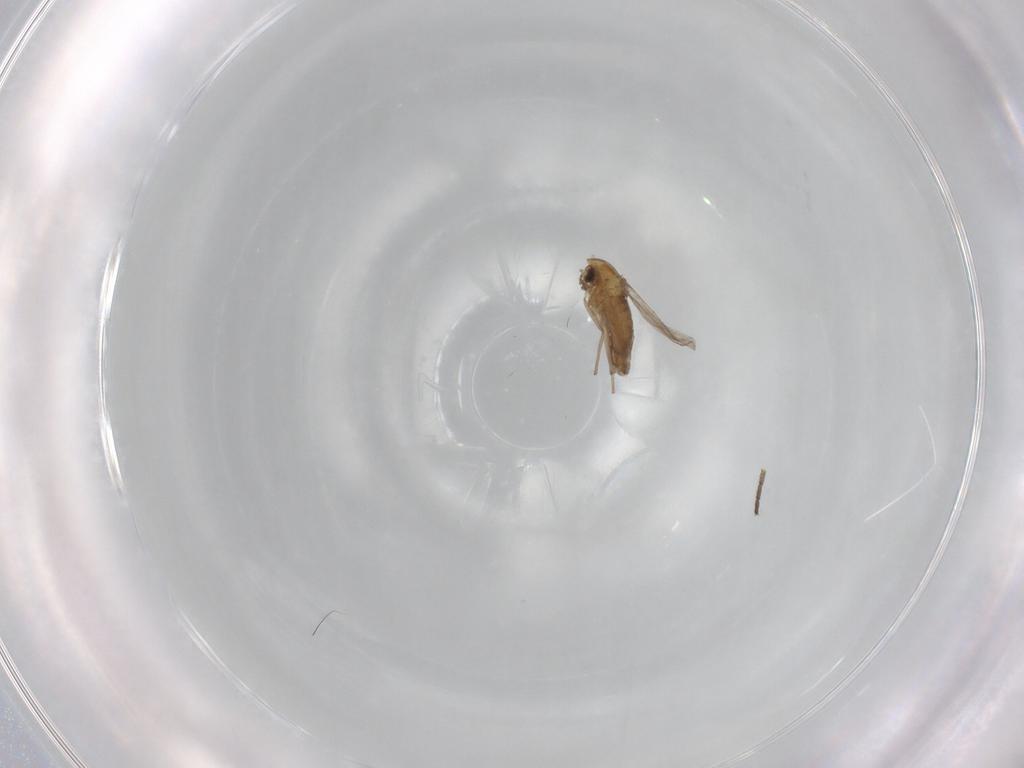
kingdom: Animalia
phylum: Arthropoda
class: Insecta
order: Diptera
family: Chironomidae
